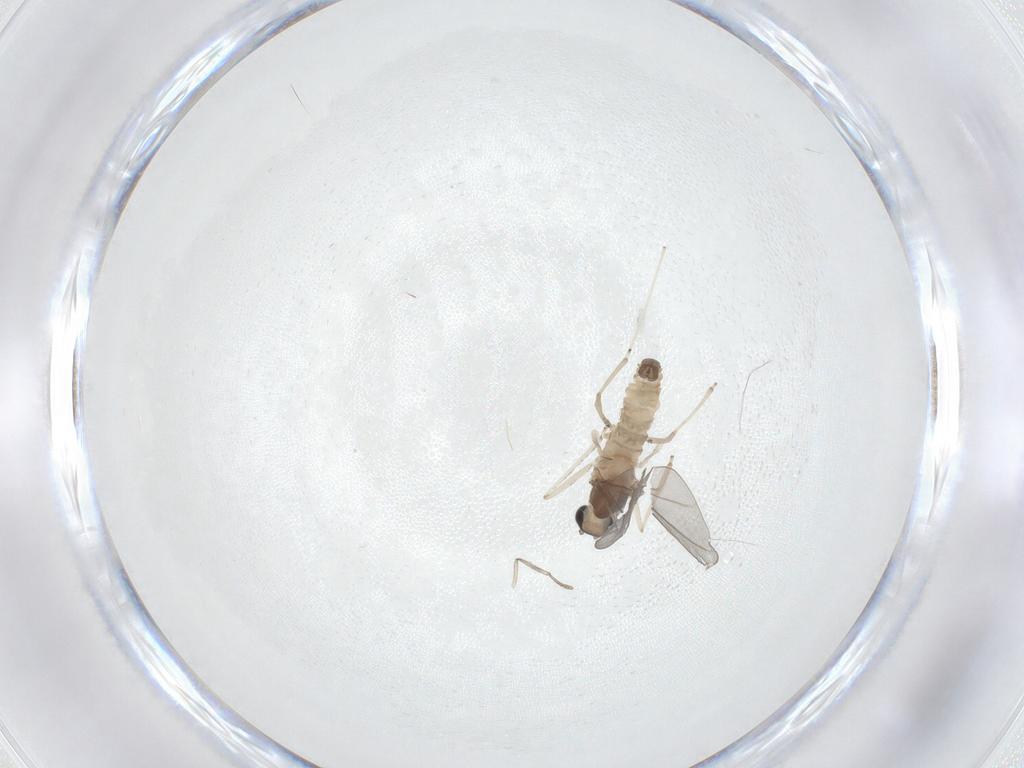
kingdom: Animalia
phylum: Arthropoda
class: Insecta
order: Diptera
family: Cecidomyiidae
